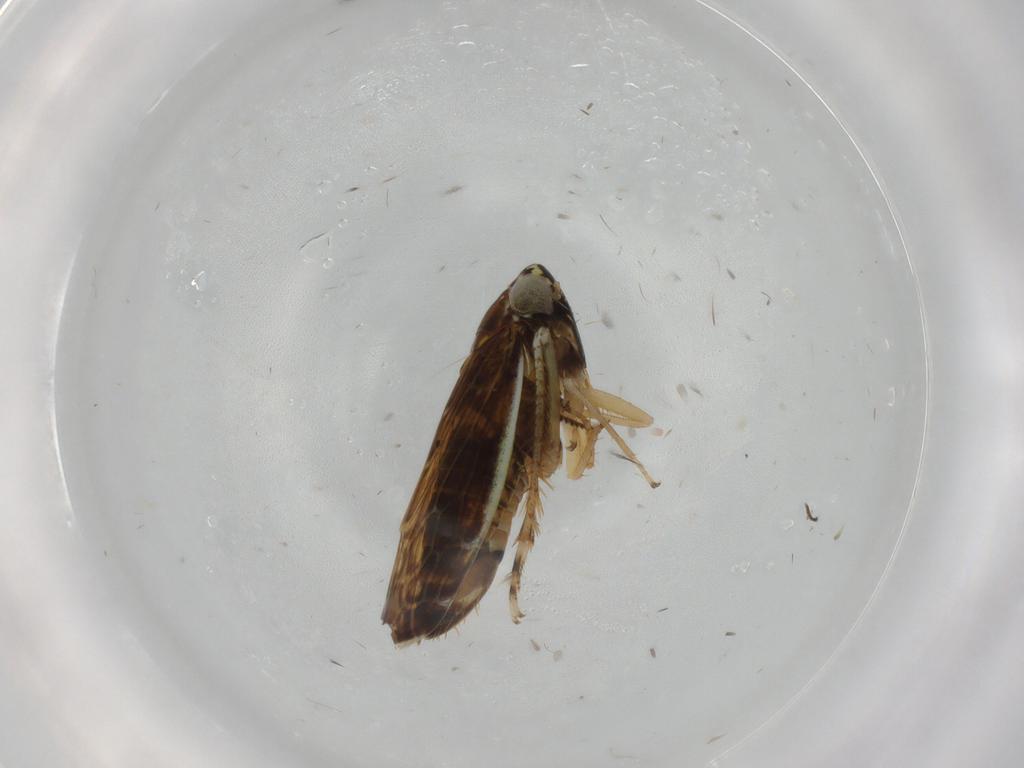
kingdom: Animalia
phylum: Arthropoda
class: Insecta
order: Hemiptera
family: Cicadellidae
